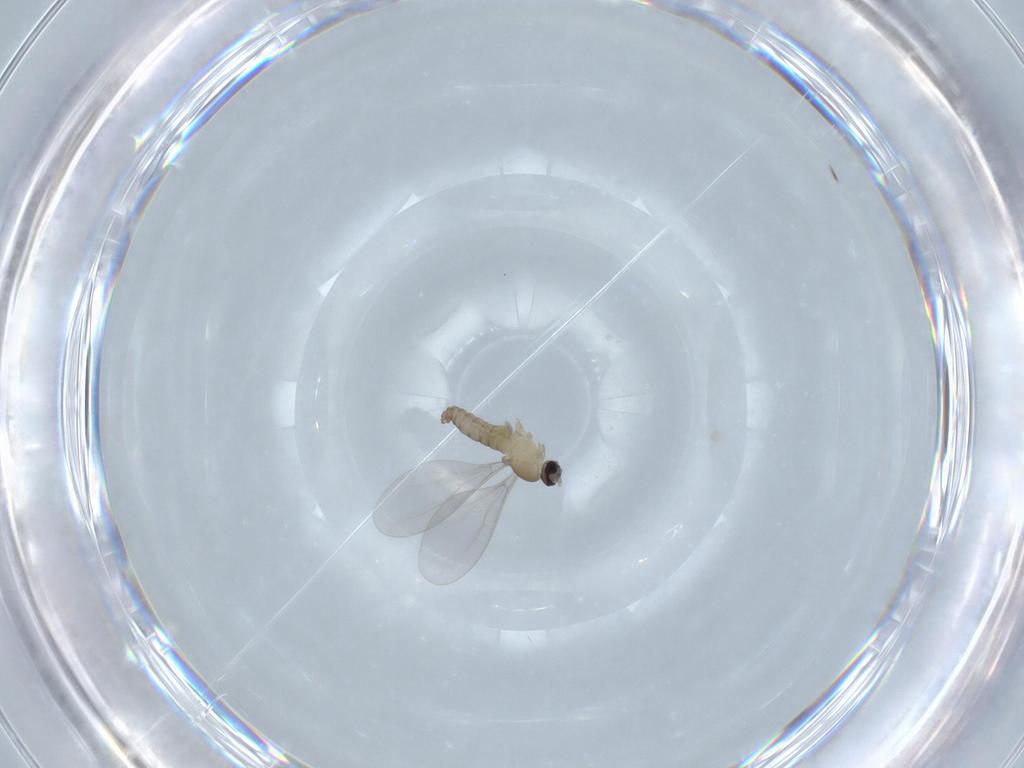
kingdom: Animalia
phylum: Arthropoda
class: Insecta
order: Diptera
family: Cecidomyiidae
